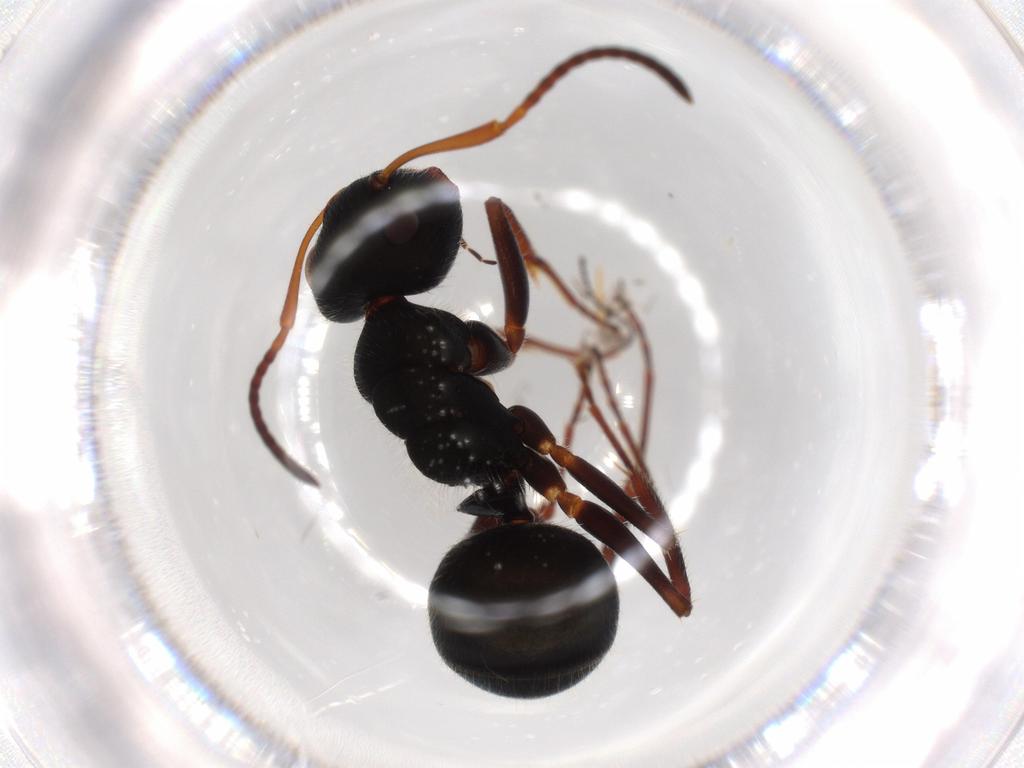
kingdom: Animalia
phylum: Arthropoda
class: Insecta
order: Hymenoptera
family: Formicidae
